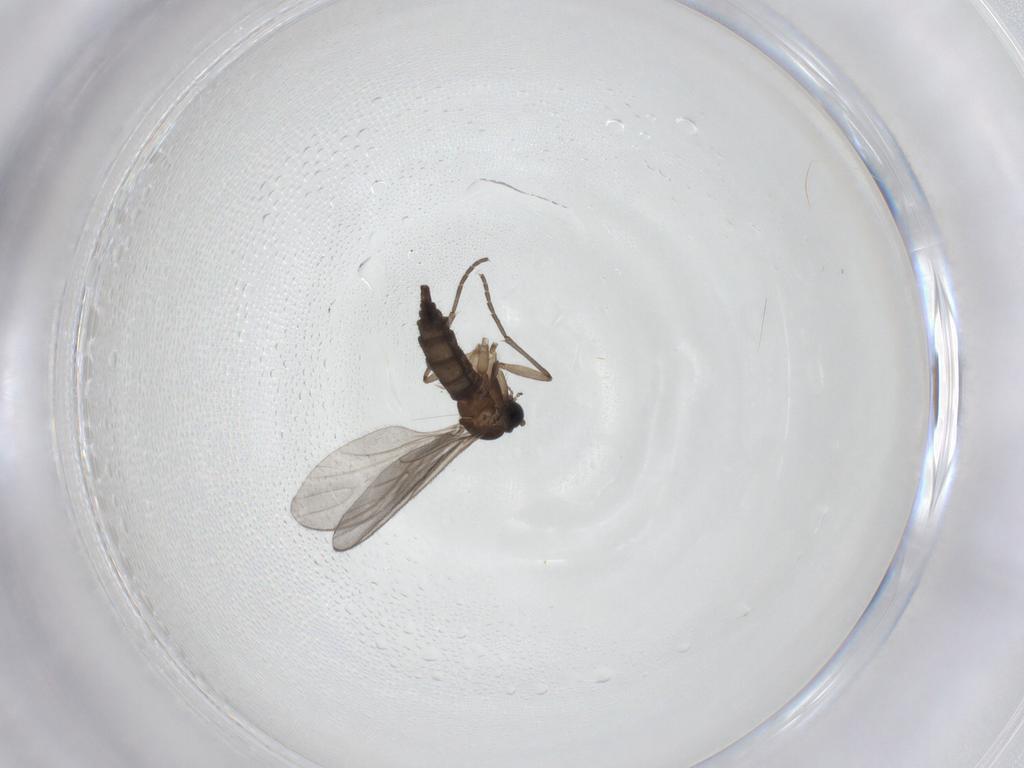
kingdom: Animalia
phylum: Arthropoda
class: Insecta
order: Diptera
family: Sciaridae
